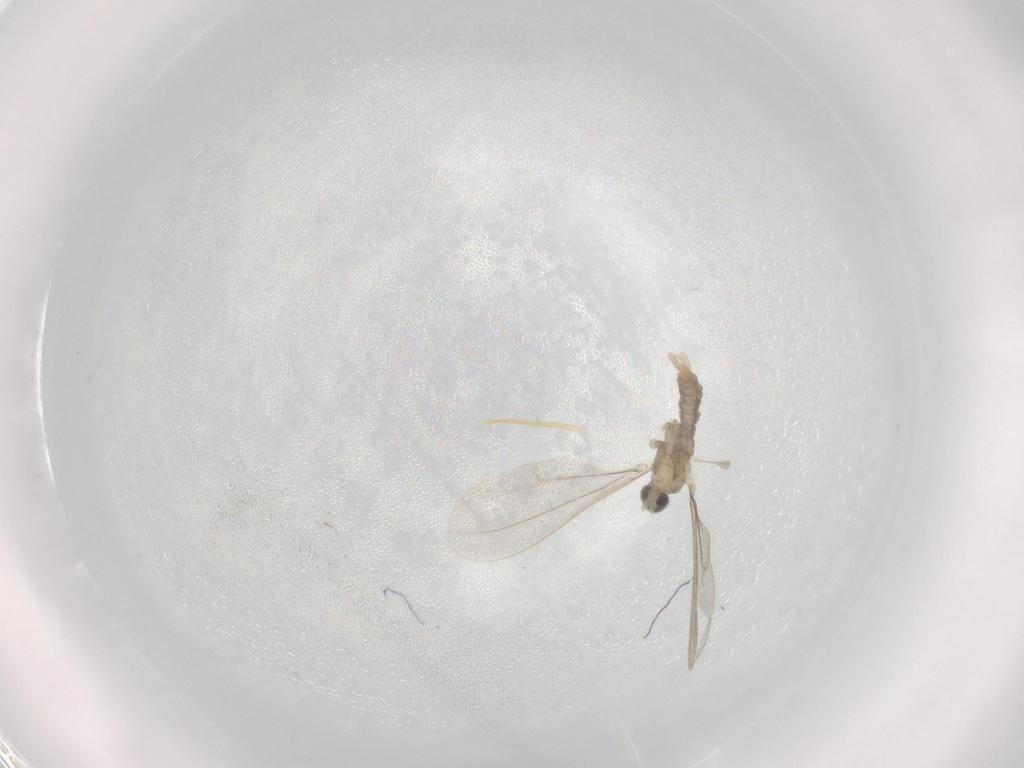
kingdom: Animalia
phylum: Arthropoda
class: Insecta
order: Diptera
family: Cecidomyiidae
